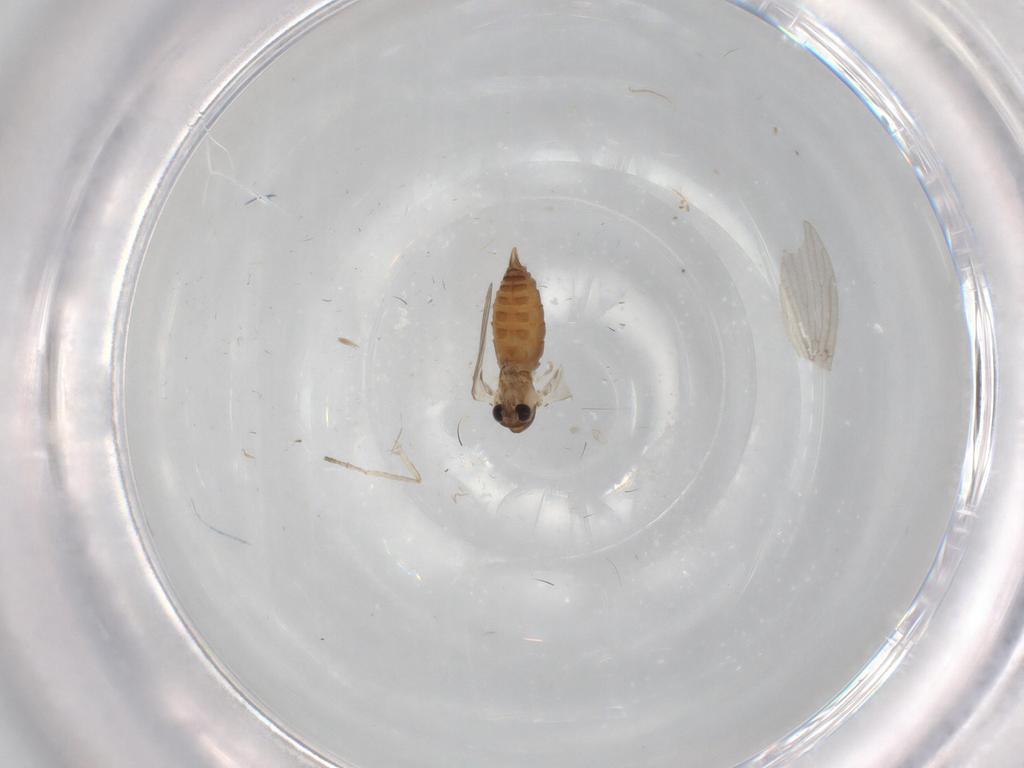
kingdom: Animalia
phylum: Arthropoda
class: Insecta
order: Diptera
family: Psychodidae
